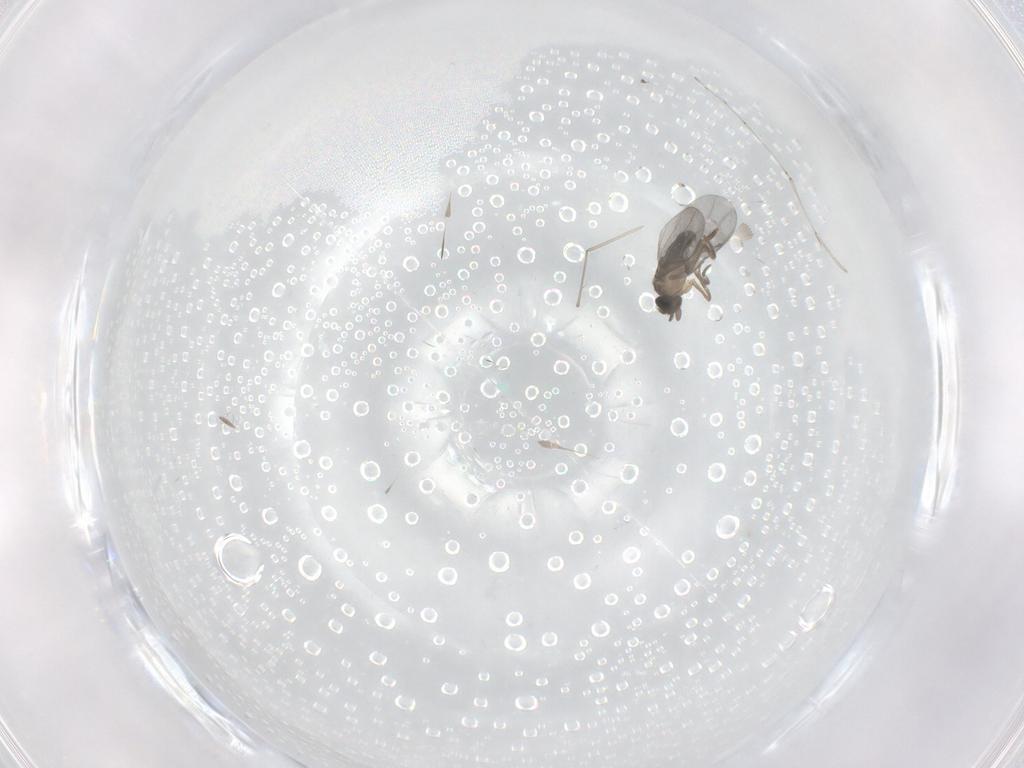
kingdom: Animalia
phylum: Arthropoda
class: Insecta
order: Diptera
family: Cecidomyiidae
